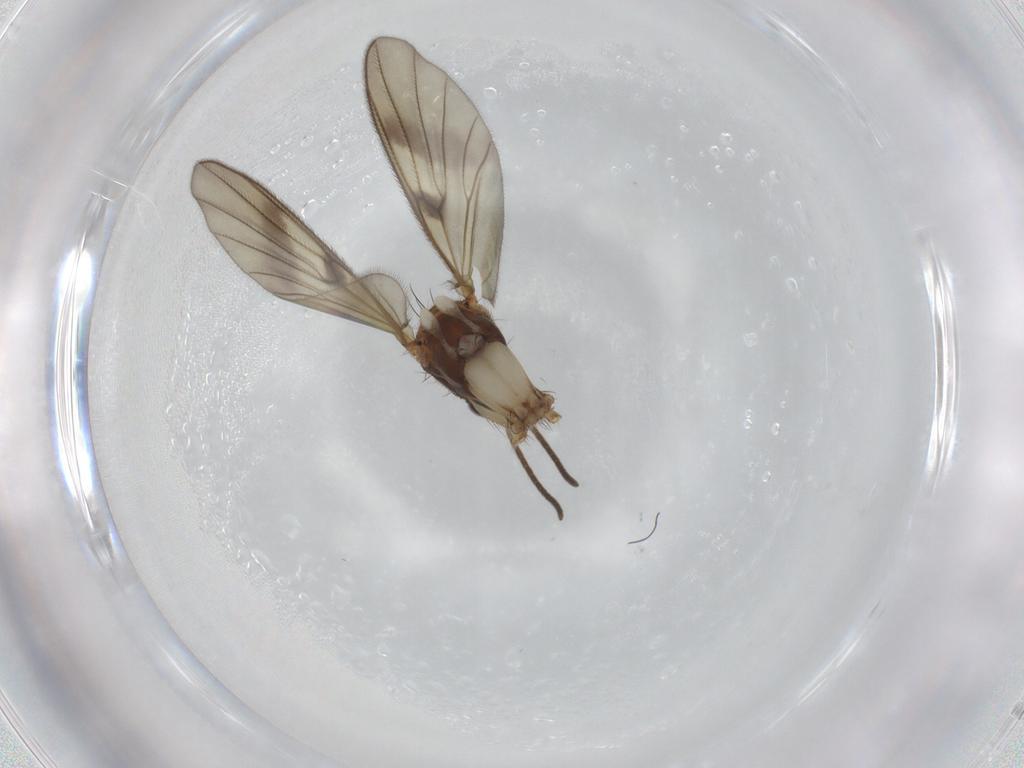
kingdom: Animalia
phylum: Arthropoda
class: Insecta
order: Diptera
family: Mycetophilidae
